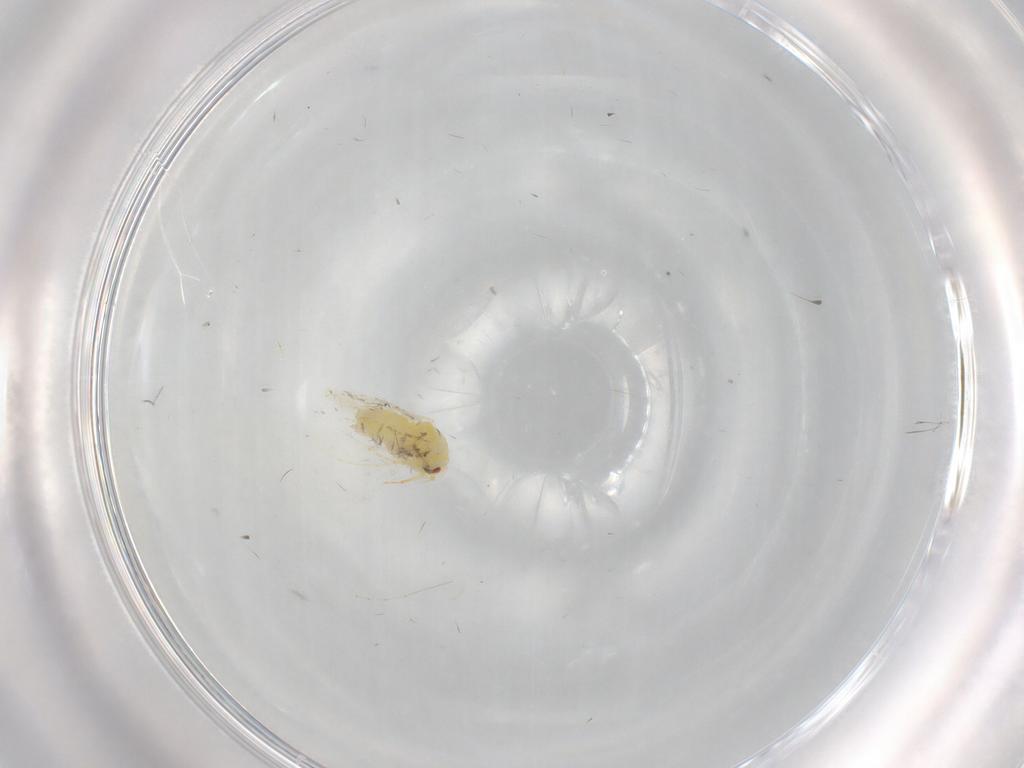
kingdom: Animalia
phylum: Arthropoda
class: Insecta
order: Hemiptera
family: Aleyrodidae
